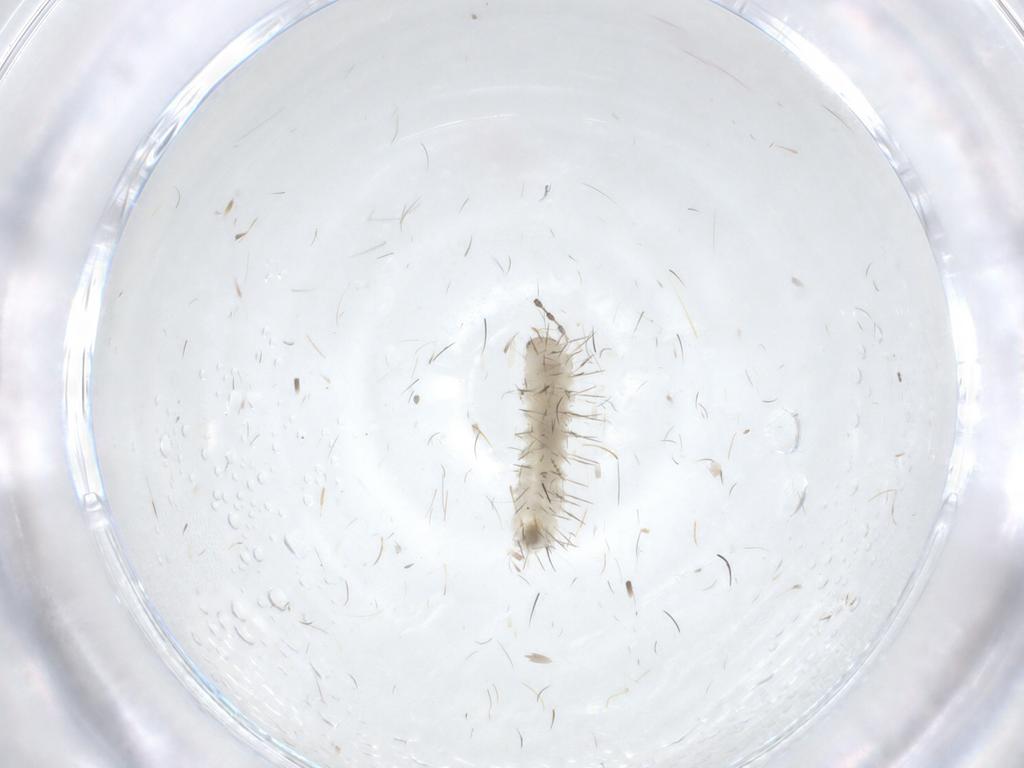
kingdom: Animalia
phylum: Arthropoda
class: Insecta
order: Lepidoptera
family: Erebidae
